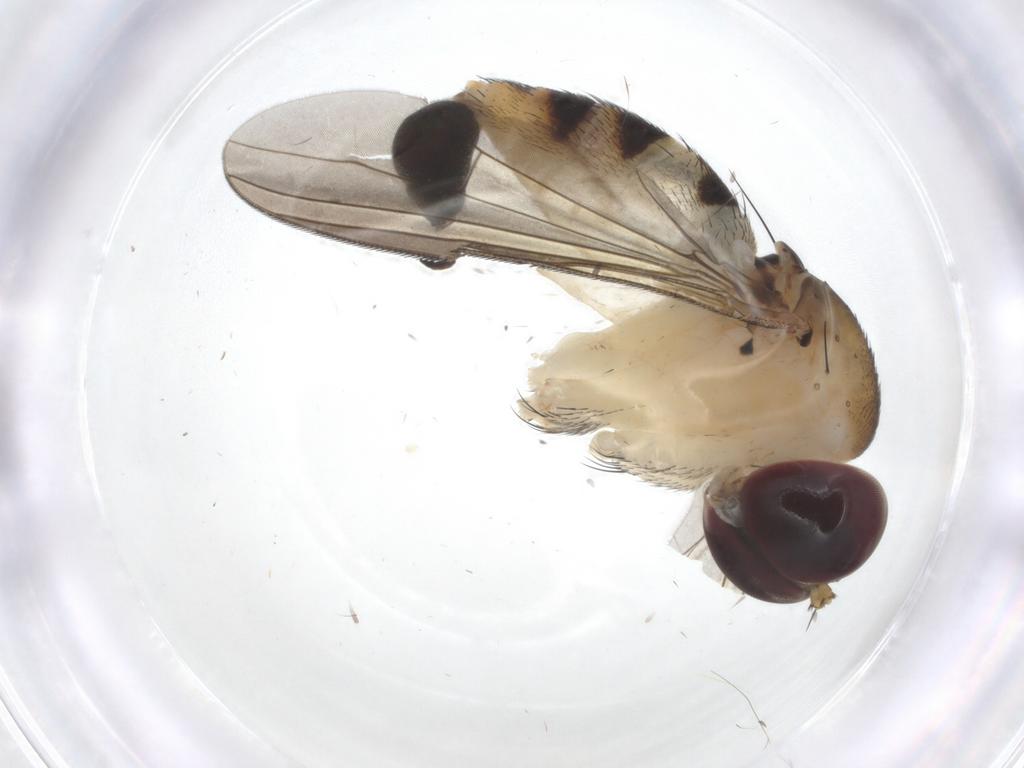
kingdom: Animalia
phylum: Arthropoda
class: Insecta
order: Diptera
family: Dolichopodidae
